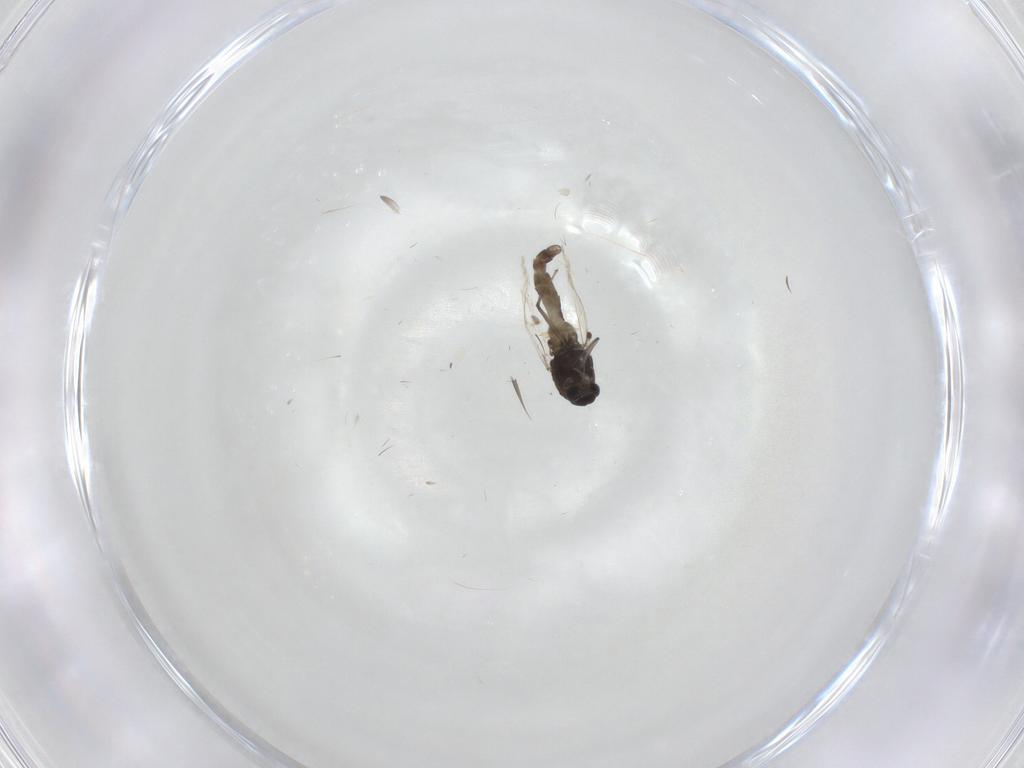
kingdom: Animalia
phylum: Arthropoda
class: Insecta
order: Diptera
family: Chironomidae
